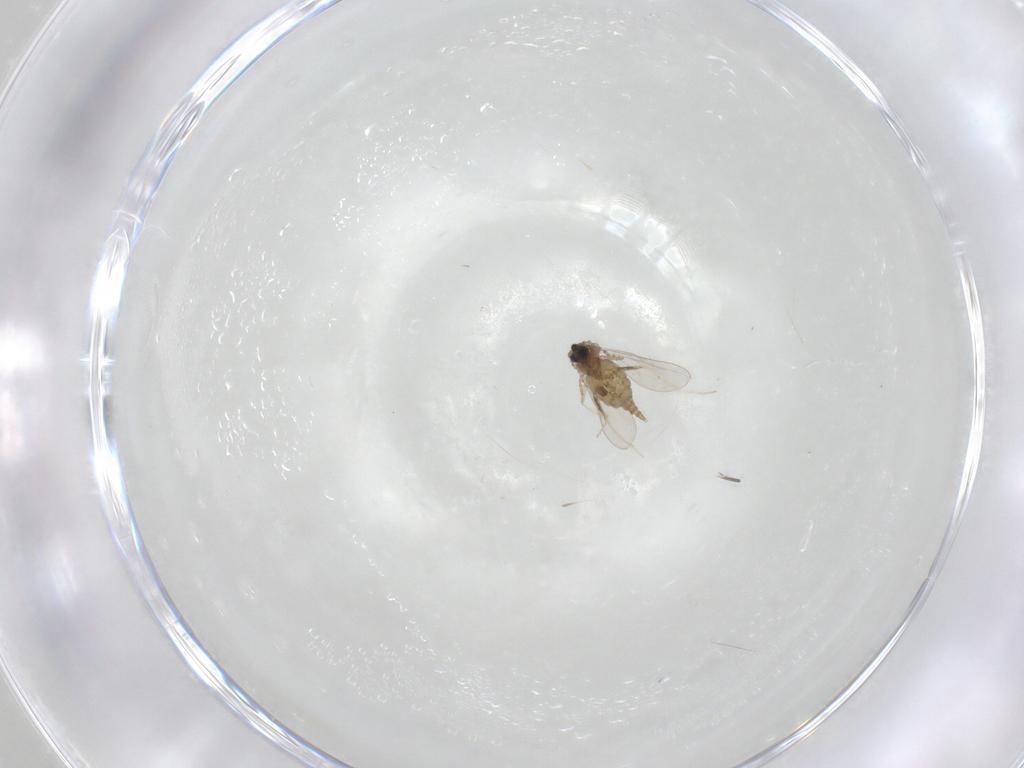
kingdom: Animalia
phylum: Arthropoda
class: Insecta
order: Diptera
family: Cecidomyiidae
